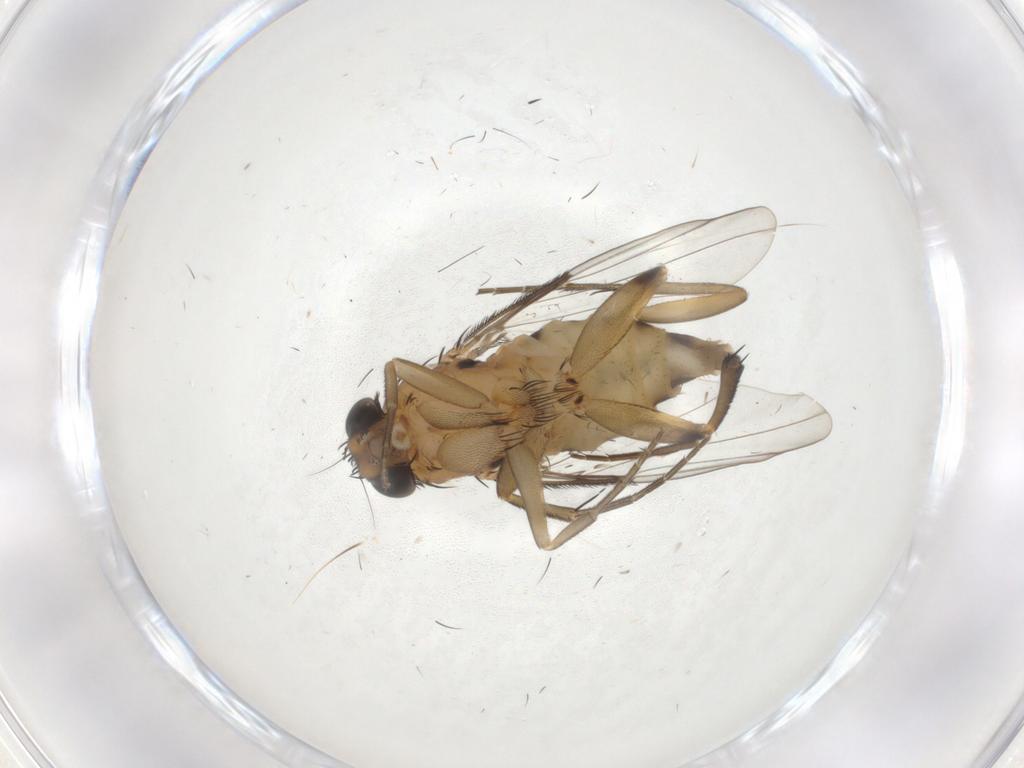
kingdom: Animalia
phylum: Arthropoda
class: Insecta
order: Diptera
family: Phoridae
